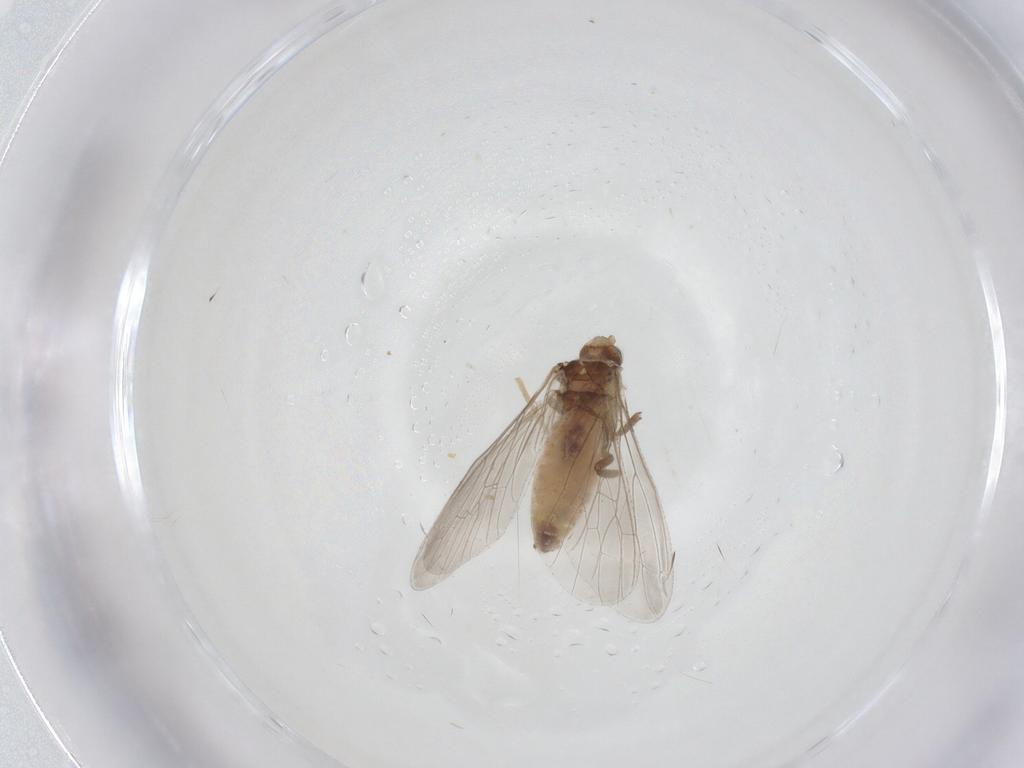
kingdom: Animalia
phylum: Arthropoda
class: Insecta
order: Neuroptera
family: Coniopterygidae
